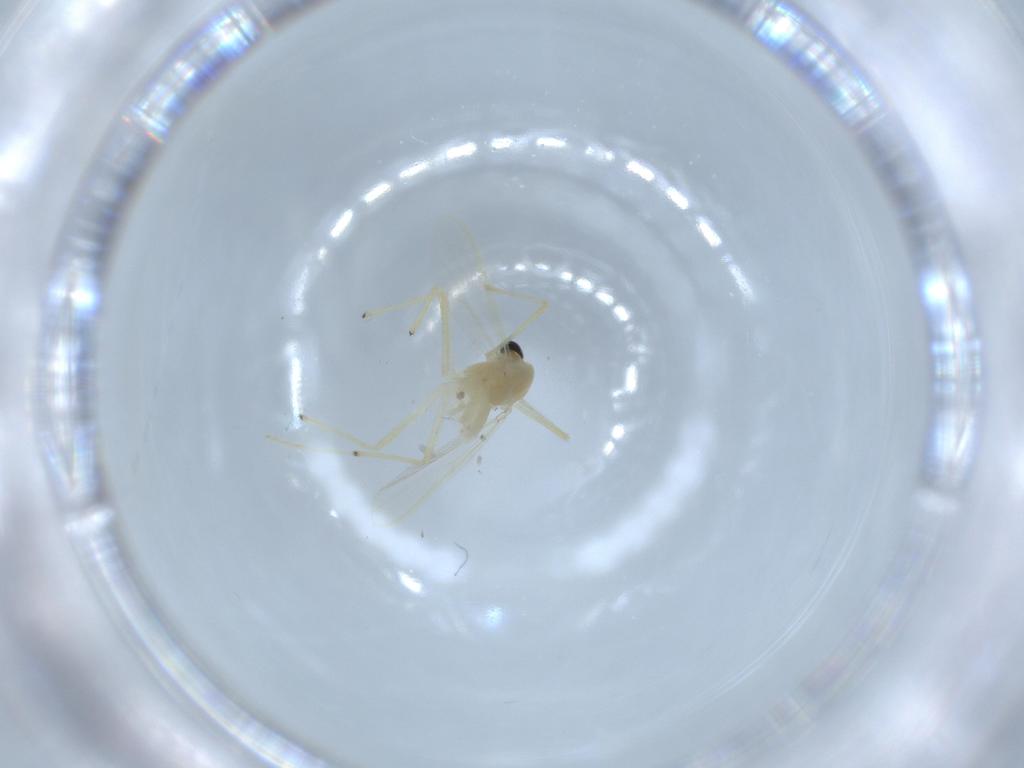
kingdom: Animalia
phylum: Arthropoda
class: Insecta
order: Diptera
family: Chironomidae
